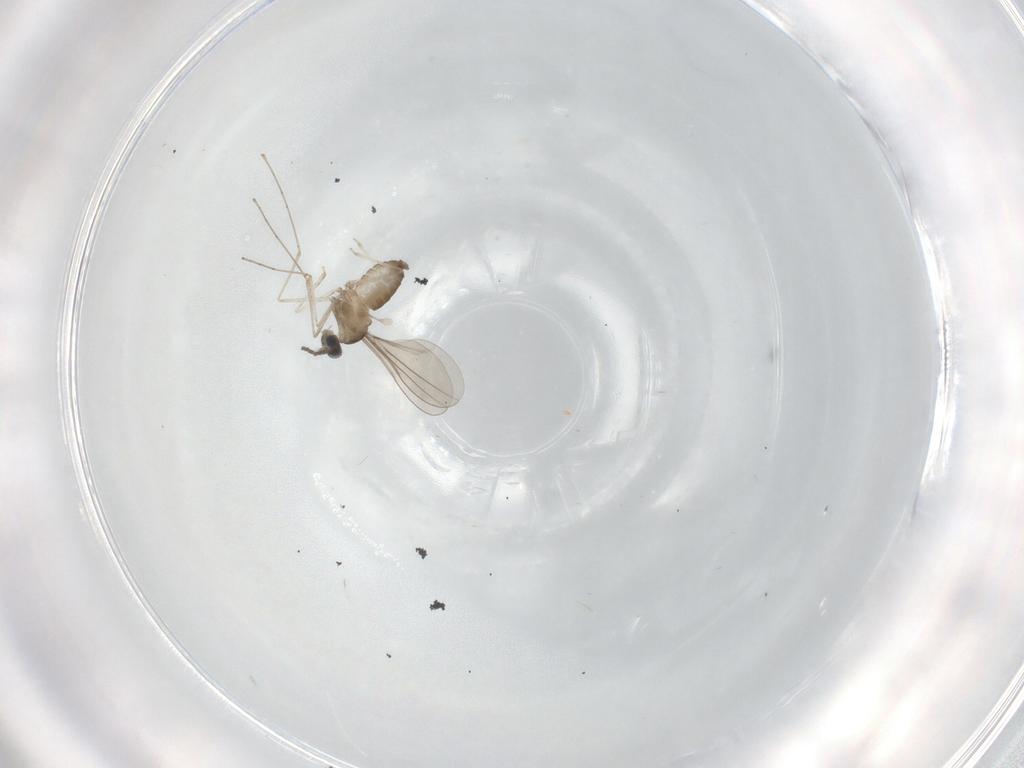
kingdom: Animalia
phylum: Arthropoda
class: Insecta
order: Diptera
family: Cecidomyiidae
